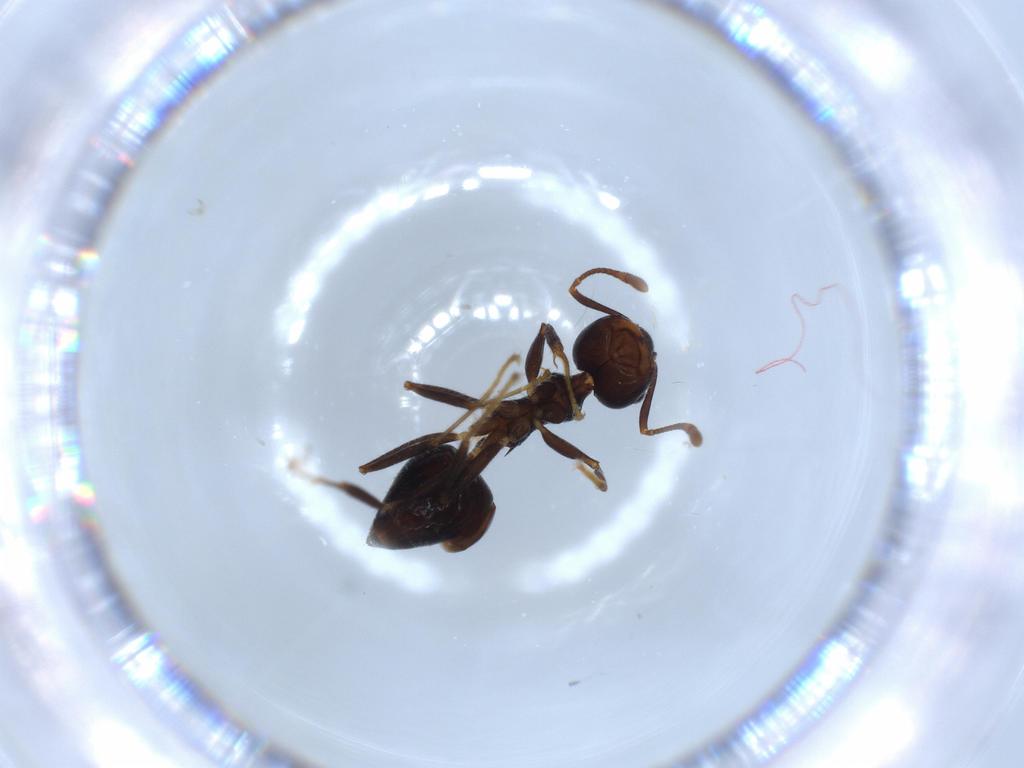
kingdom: Animalia
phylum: Arthropoda
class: Insecta
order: Hymenoptera
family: Formicidae
